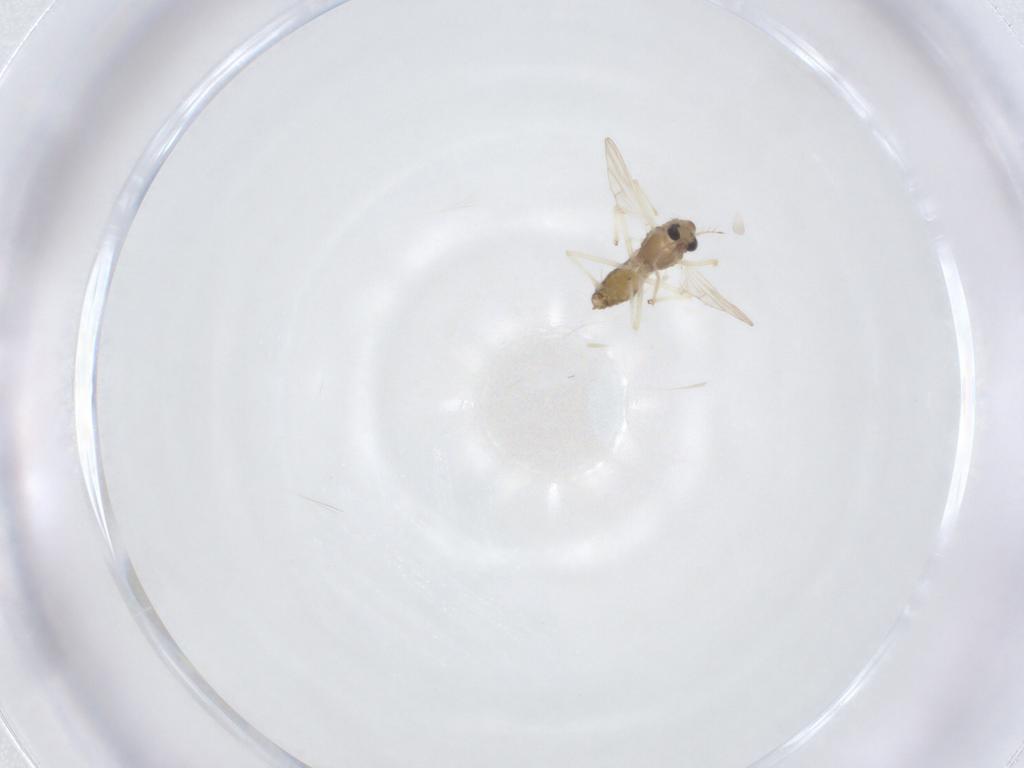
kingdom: Animalia
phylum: Arthropoda
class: Insecta
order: Diptera
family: Chironomidae
